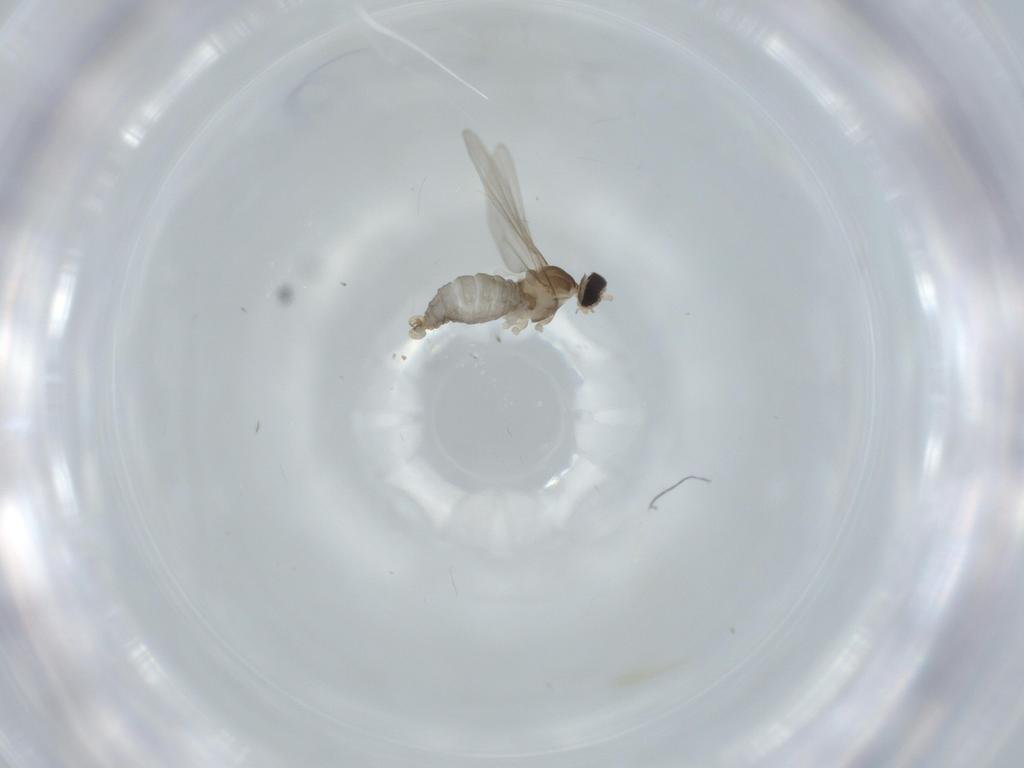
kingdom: Animalia
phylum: Arthropoda
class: Insecta
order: Diptera
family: Cecidomyiidae
